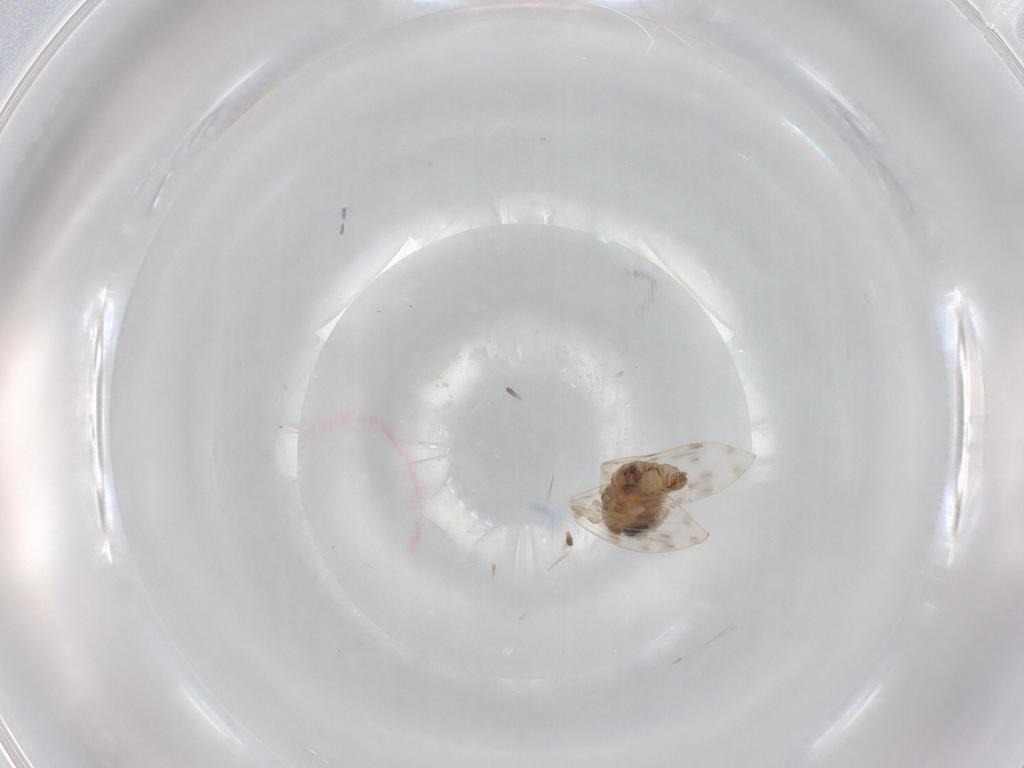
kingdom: Animalia
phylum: Arthropoda
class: Insecta
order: Diptera
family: Psychodidae
